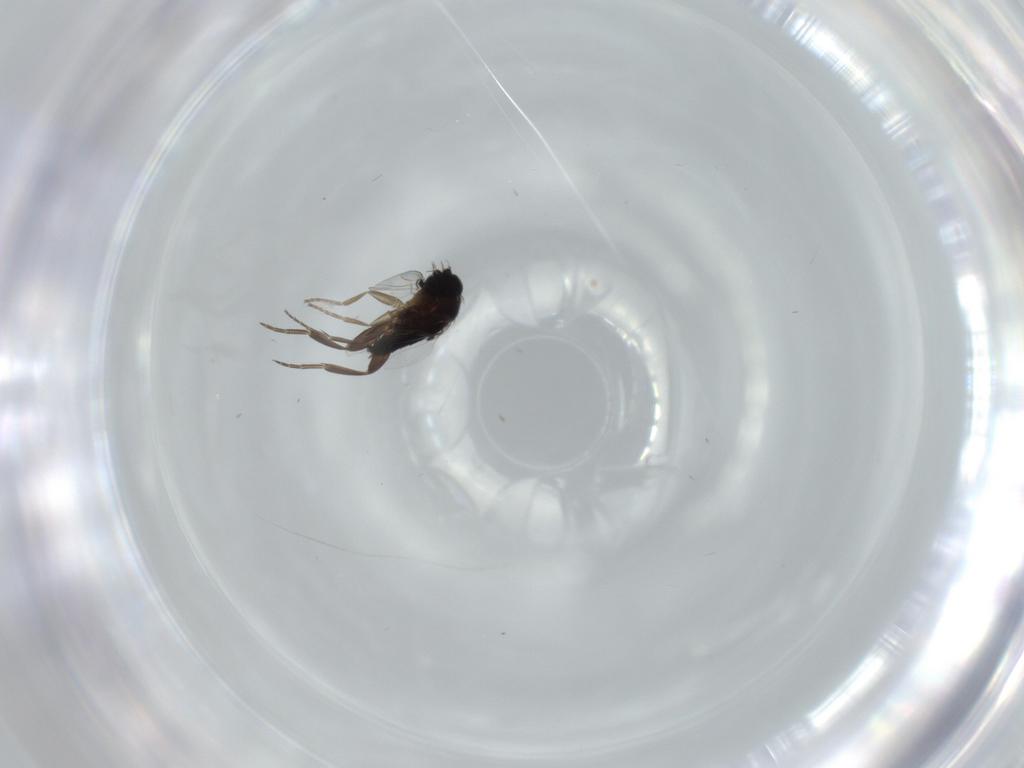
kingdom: Animalia
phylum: Arthropoda
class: Insecta
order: Diptera
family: Phoridae
